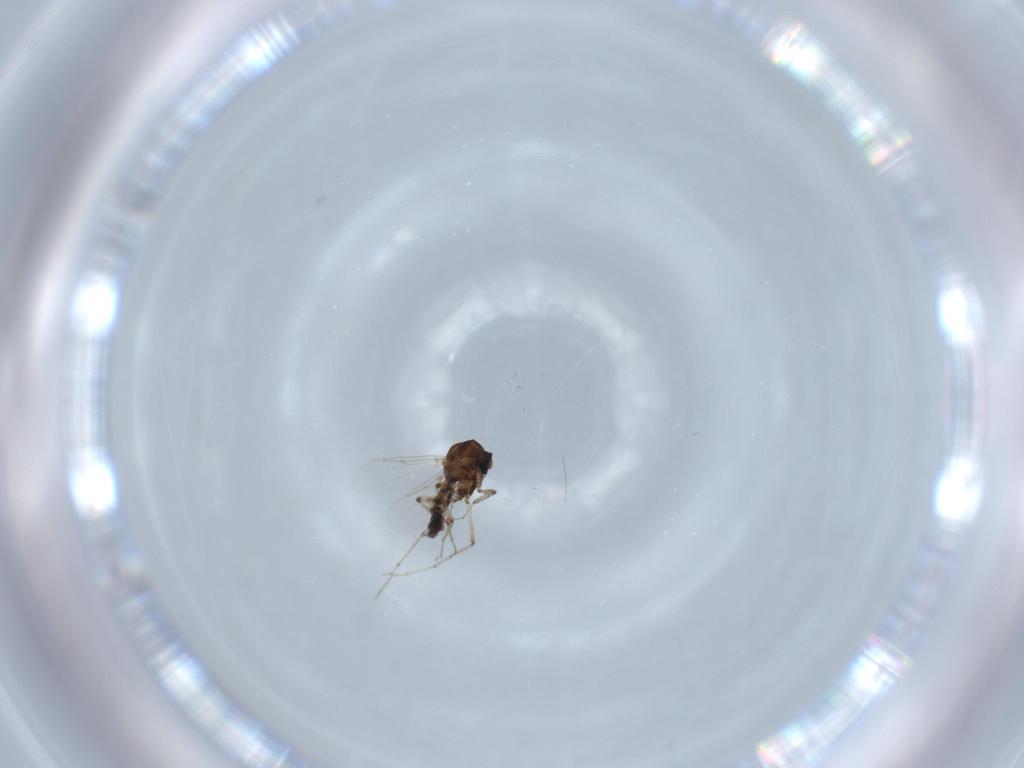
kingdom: Animalia
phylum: Arthropoda
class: Insecta
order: Diptera
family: Ceratopogonidae
